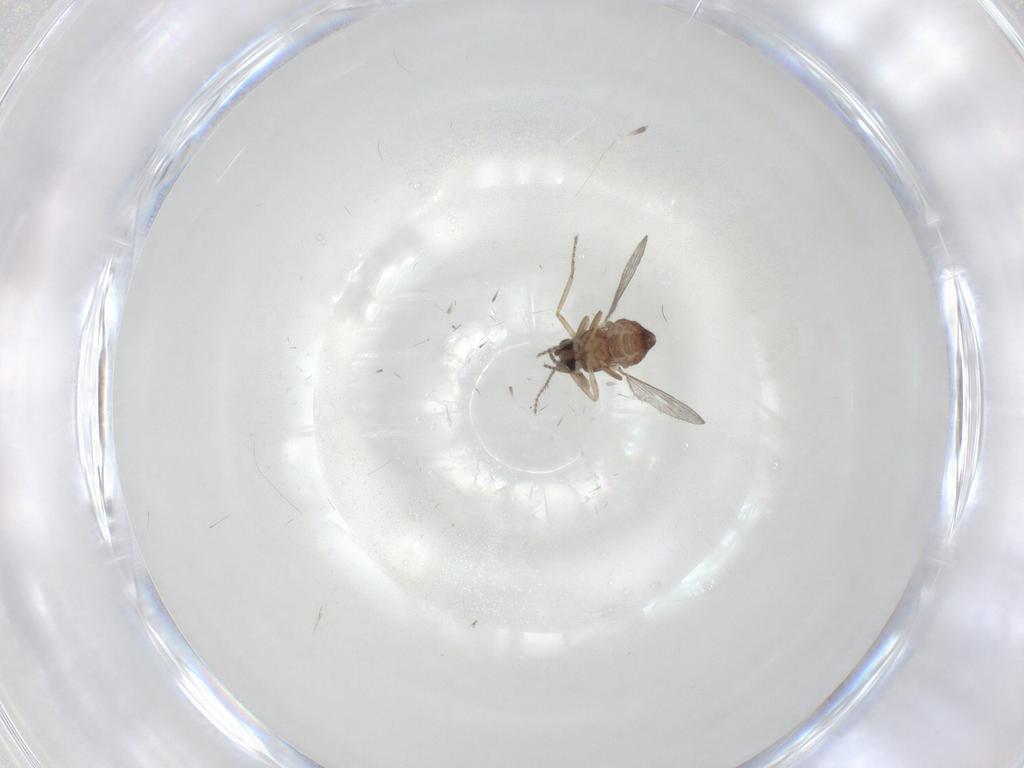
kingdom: Animalia
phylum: Arthropoda
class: Insecta
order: Diptera
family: Ceratopogonidae
